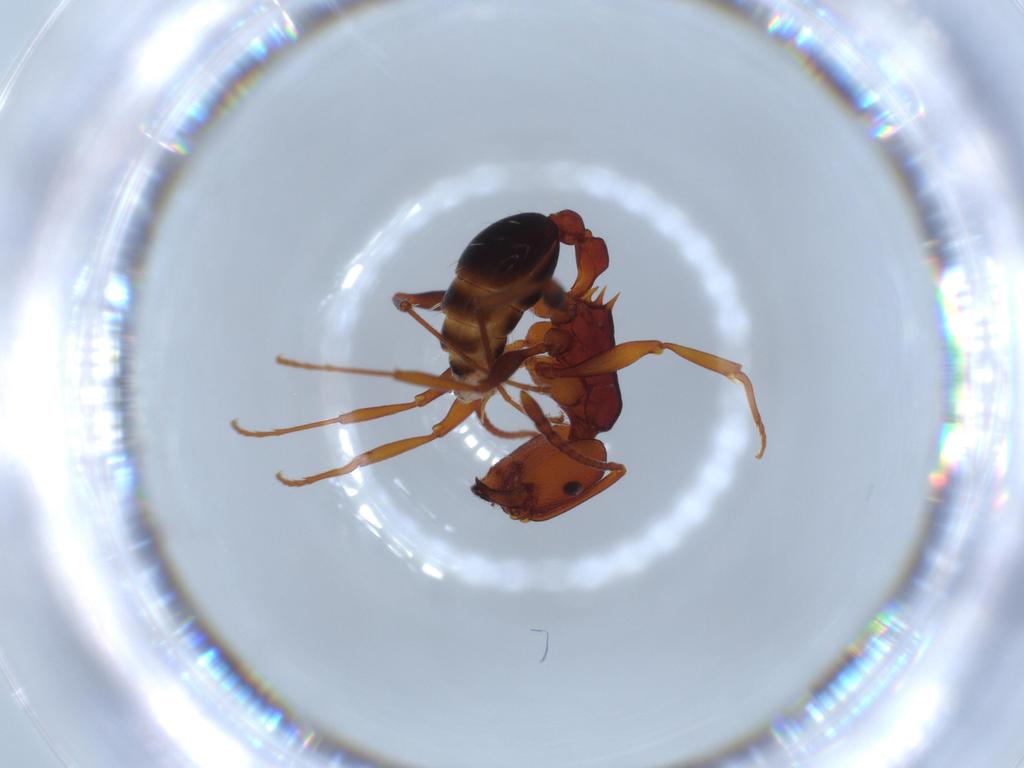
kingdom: Animalia
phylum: Arthropoda
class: Insecta
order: Hymenoptera
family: Formicidae
